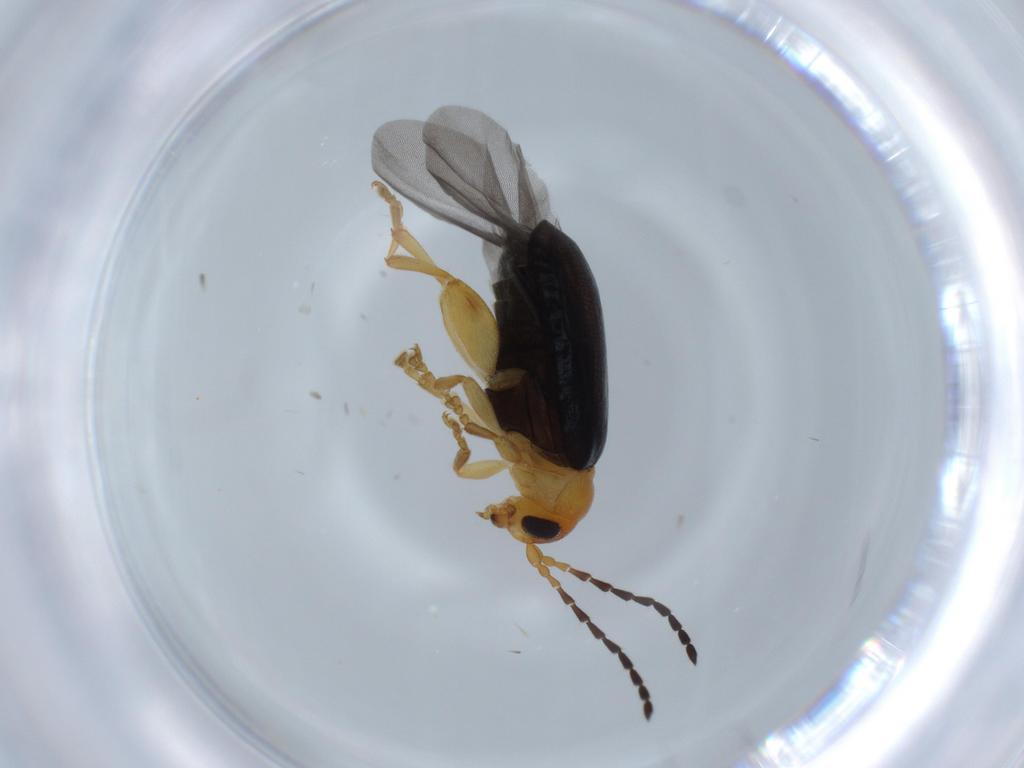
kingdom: Animalia
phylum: Arthropoda
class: Insecta
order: Coleoptera
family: Chrysomelidae
